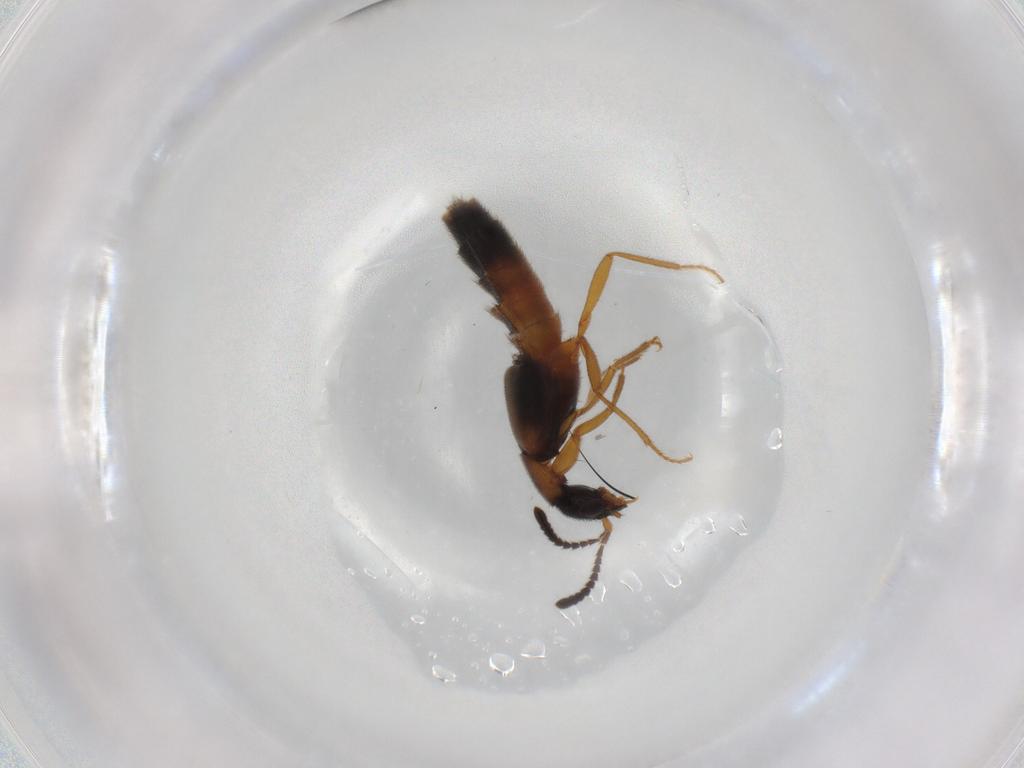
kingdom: Animalia
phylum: Arthropoda
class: Insecta
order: Coleoptera
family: Staphylinidae
